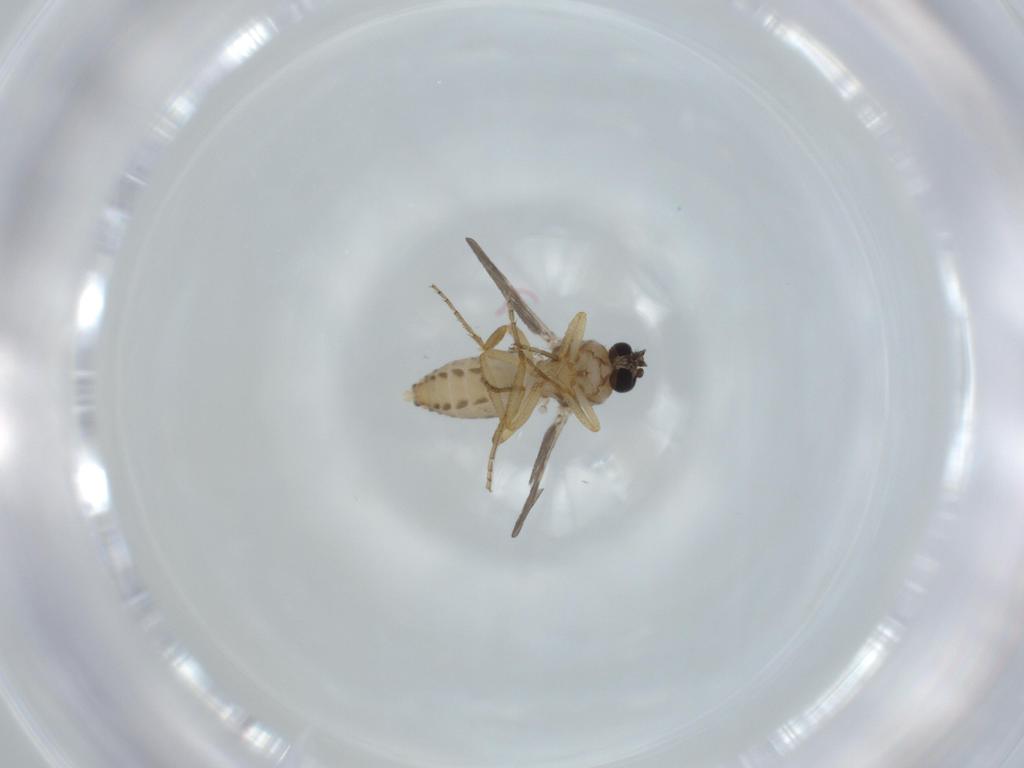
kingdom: Animalia
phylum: Arthropoda
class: Insecta
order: Diptera
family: Ceratopogonidae
